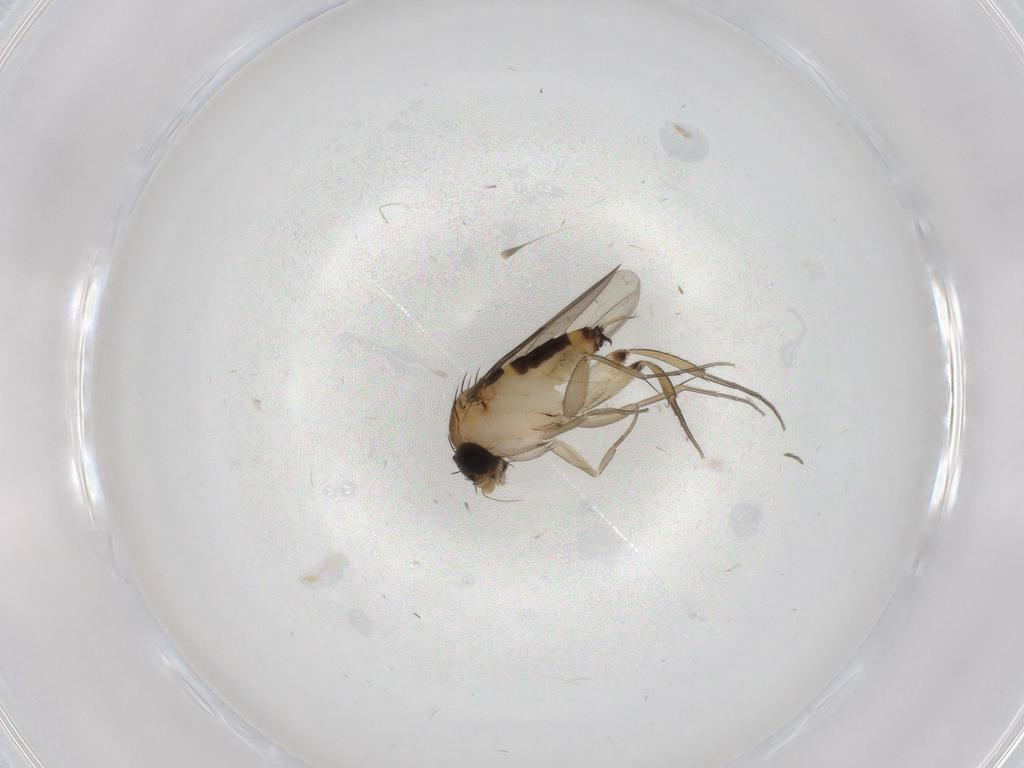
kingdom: Animalia
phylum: Arthropoda
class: Insecta
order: Diptera
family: Phoridae
